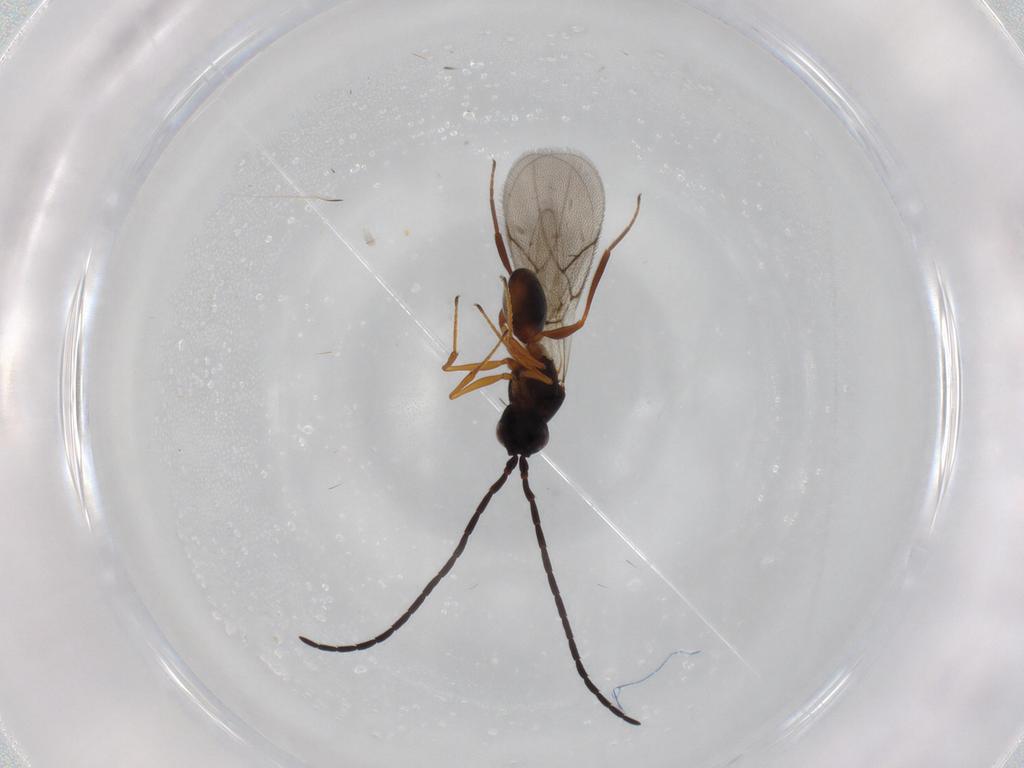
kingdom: Animalia
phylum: Arthropoda
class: Insecta
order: Hymenoptera
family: Figitidae
